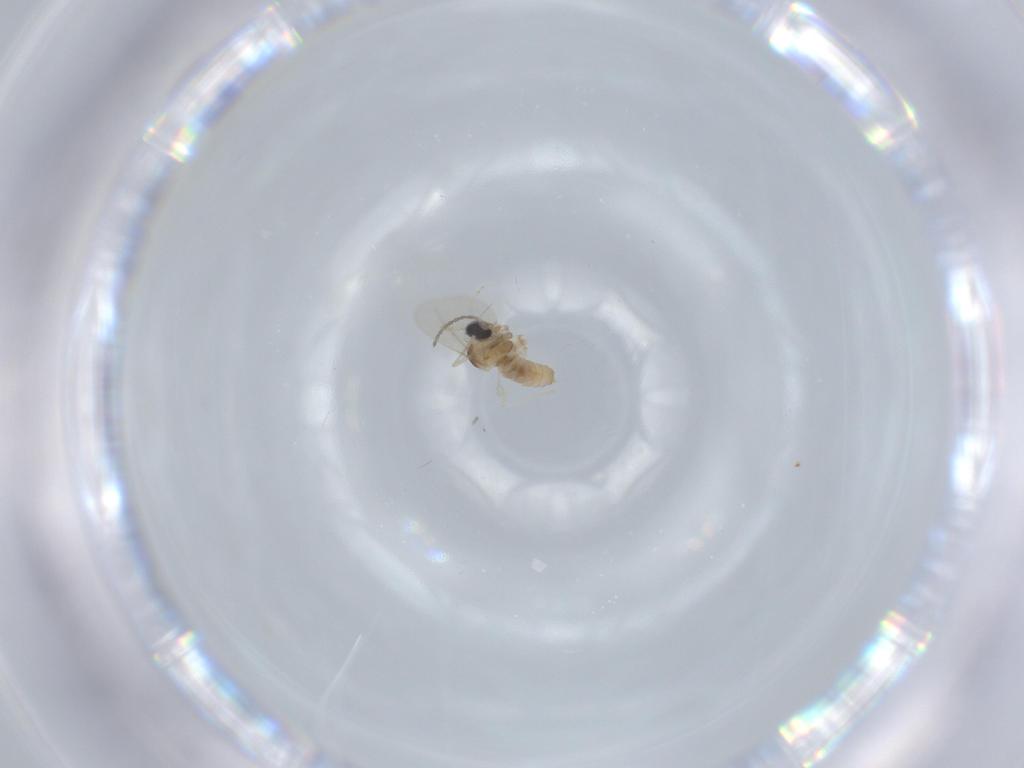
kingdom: Animalia
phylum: Arthropoda
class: Insecta
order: Diptera
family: Cecidomyiidae
